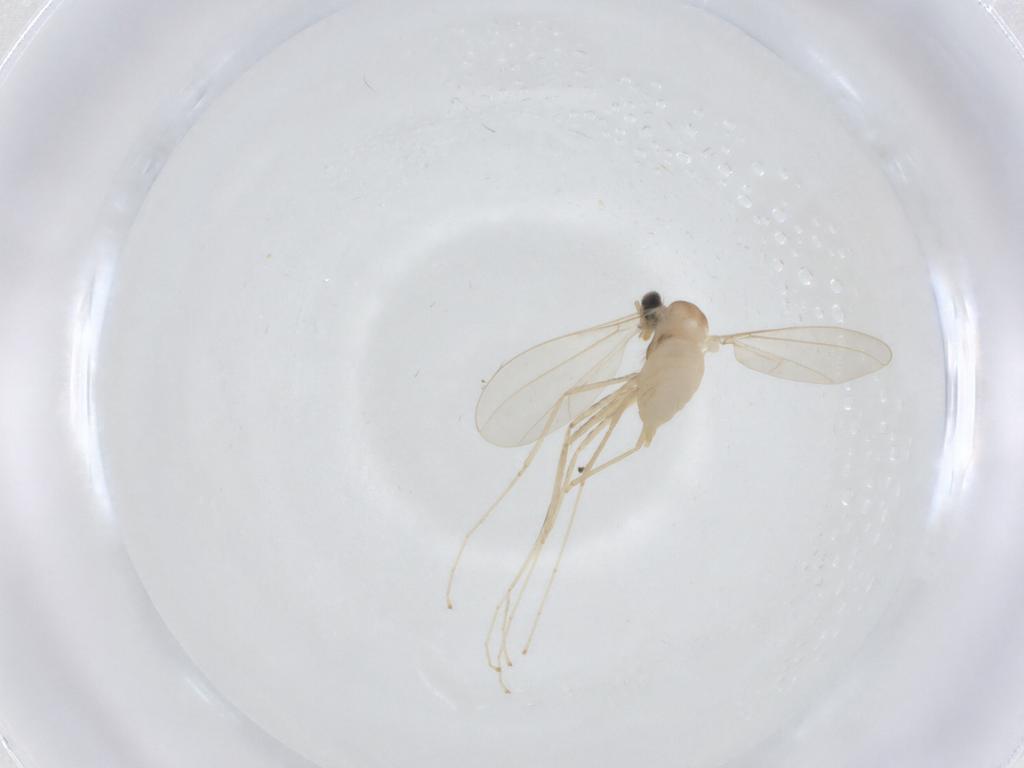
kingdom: Animalia
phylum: Arthropoda
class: Insecta
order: Diptera
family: Cecidomyiidae
